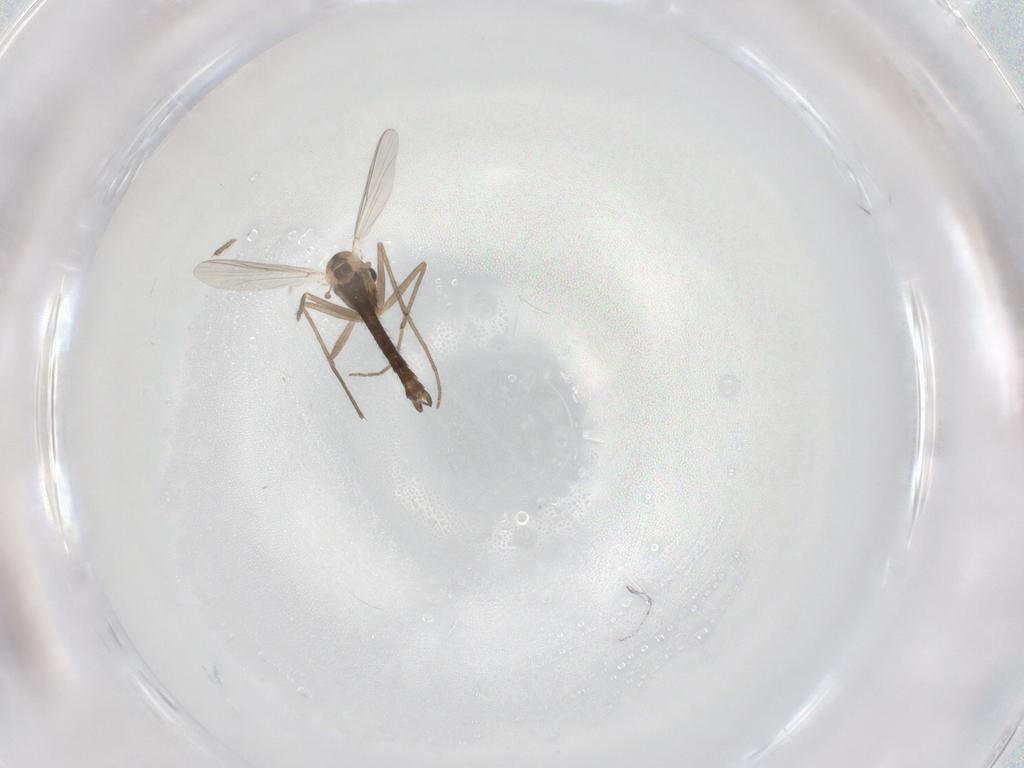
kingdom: Animalia
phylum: Arthropoda
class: Insecta
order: Diptera
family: Chironomidae
